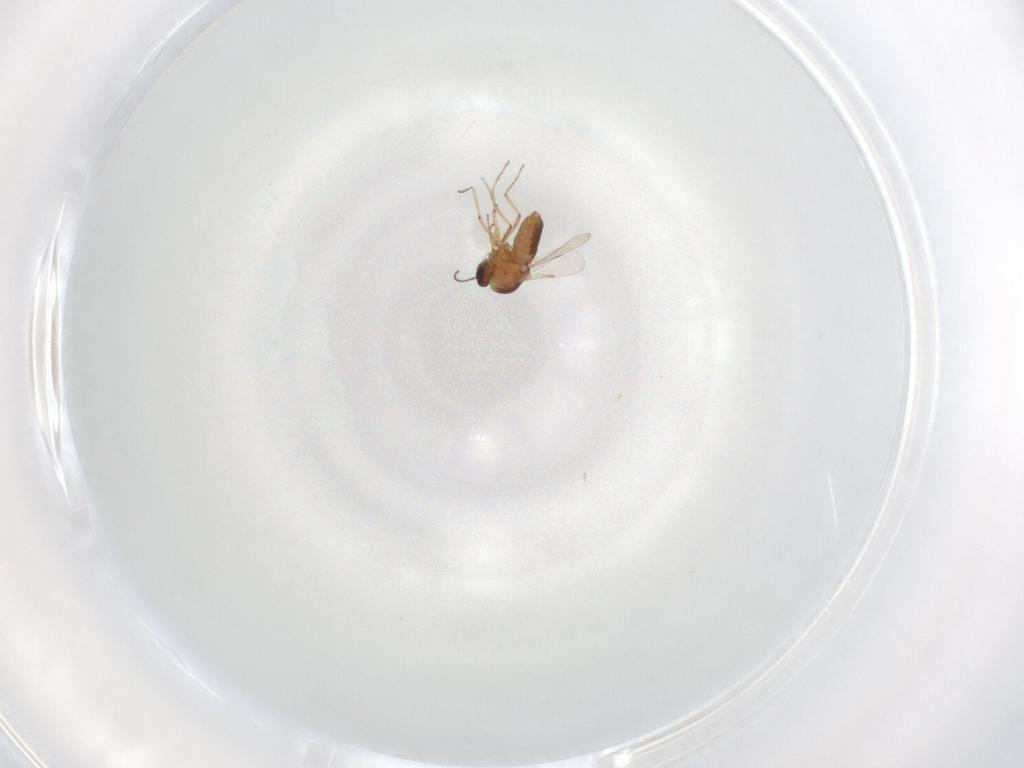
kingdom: Animalia
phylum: Arthropoda
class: Insecta
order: Diptera
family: Ceratopogonidae
